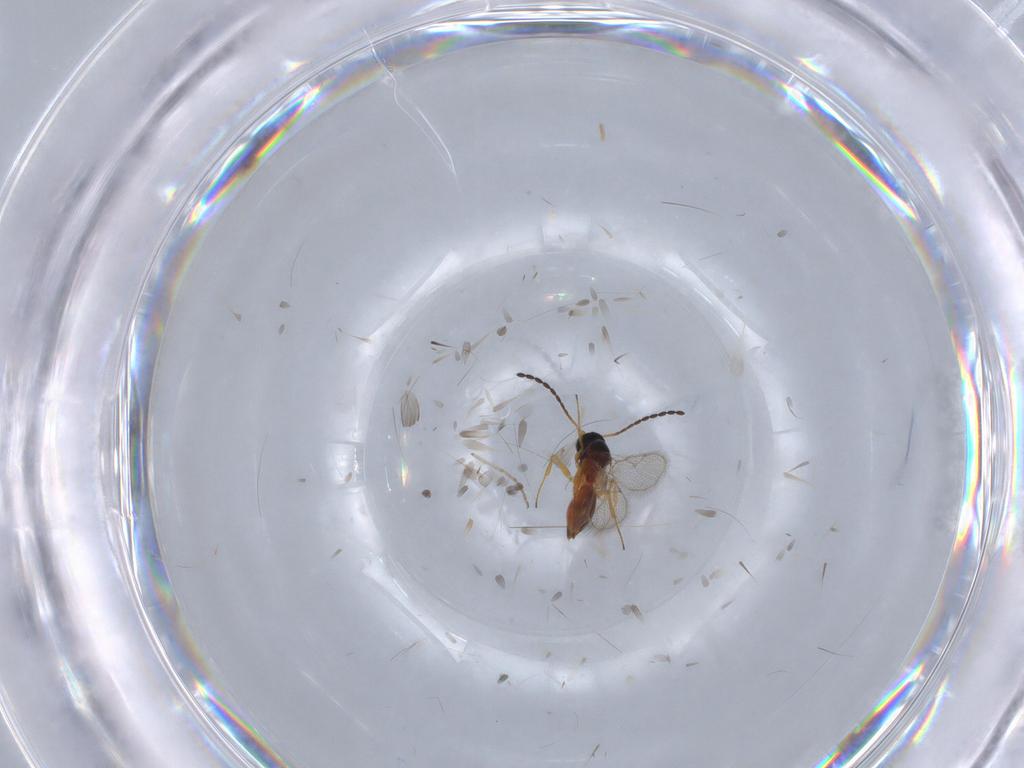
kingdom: Animalia
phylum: Arthropoda
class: Insecta
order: Hymenoptera
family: Figitidae
